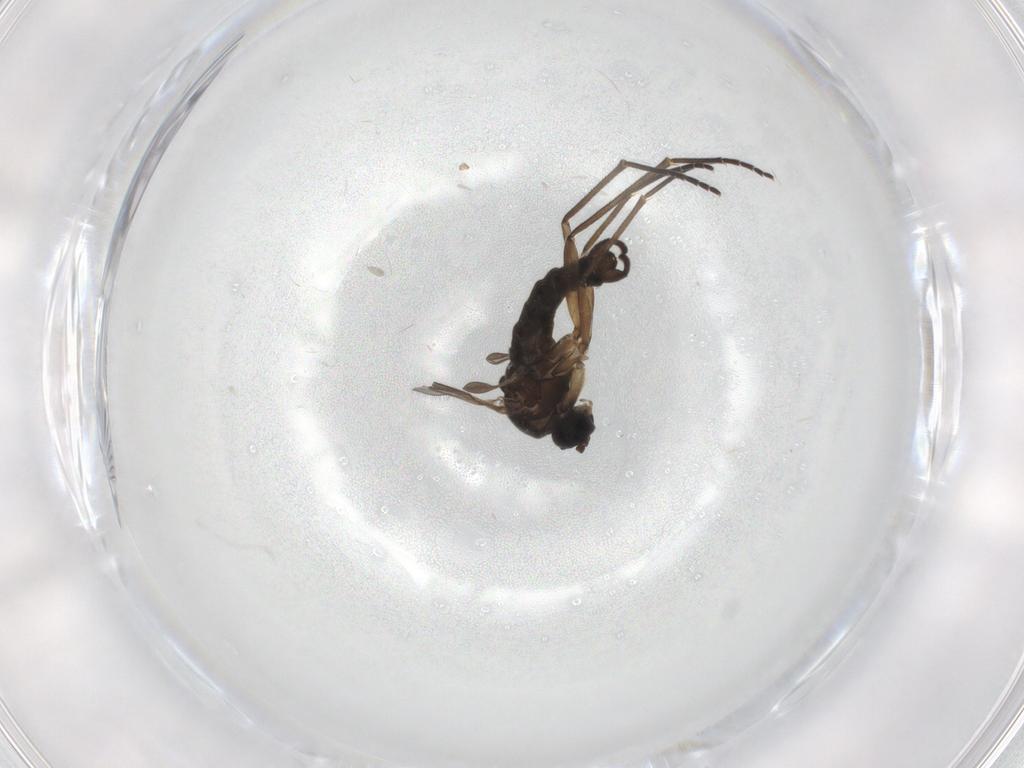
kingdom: Animalia
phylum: Arthropoda
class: Insecta
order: Diptera
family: Sciaridae
